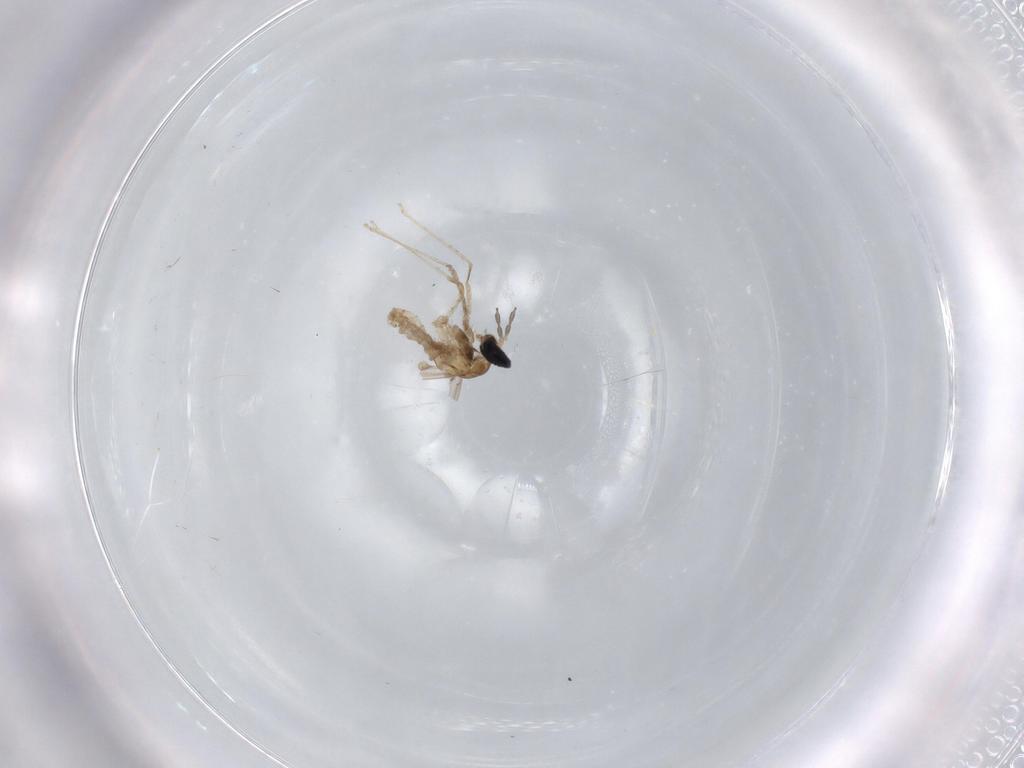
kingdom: Animalia
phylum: Arthropoda
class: Insecta
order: Diptera
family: Cecidomyiidae
